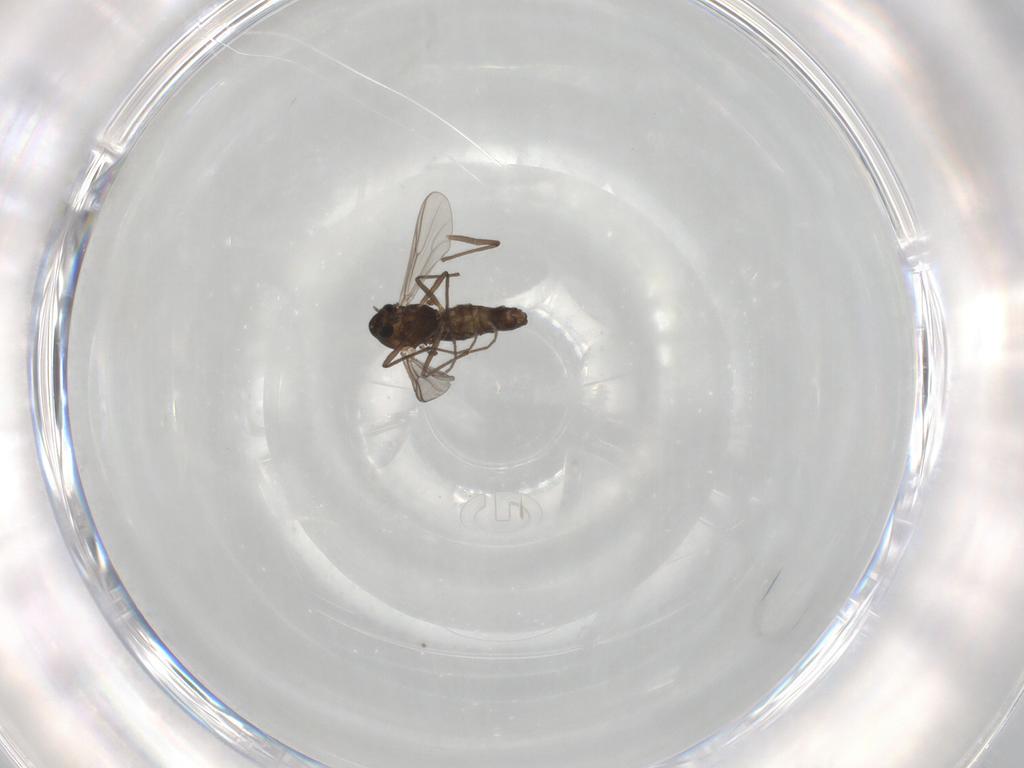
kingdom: Animalia
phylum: Arthropoda
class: Insecta
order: Diptera
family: Chironomidae
